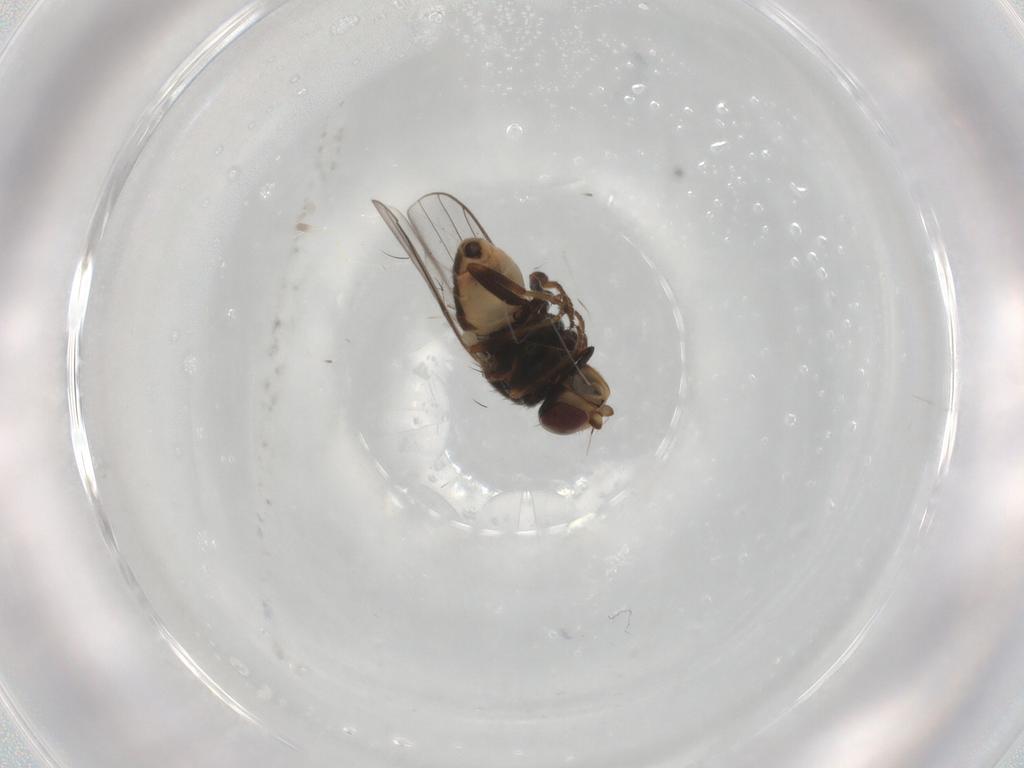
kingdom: Animalia
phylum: Arthropoda
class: Insecta
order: Diptera
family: Chloropidae
